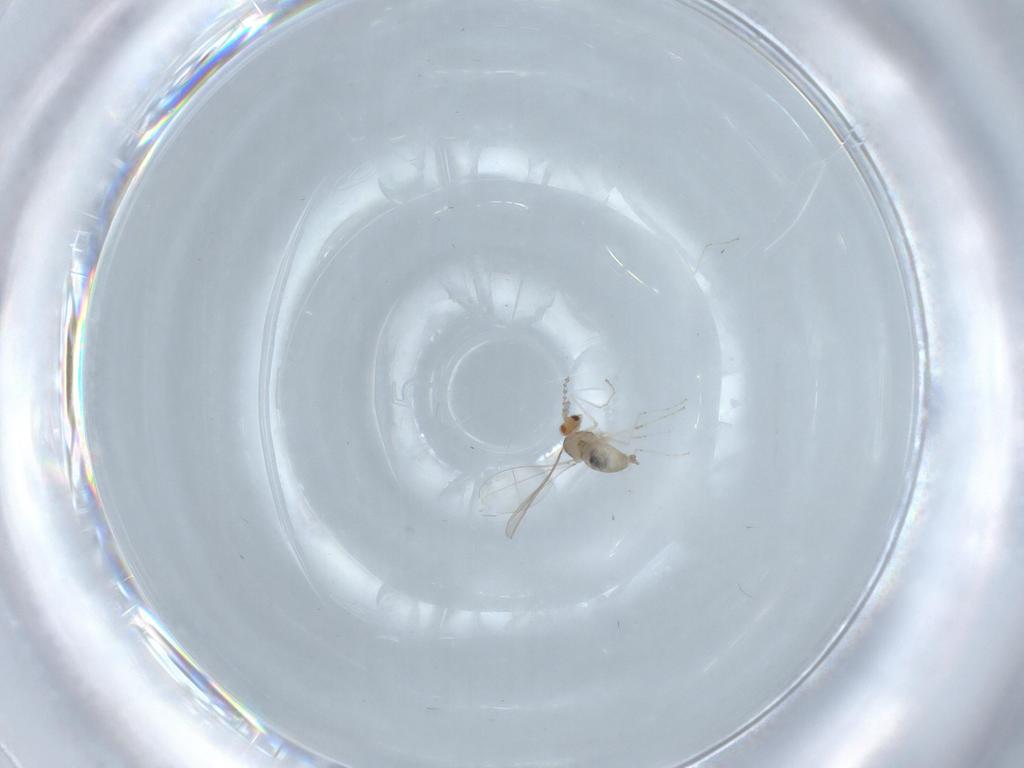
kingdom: Animalia
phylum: Arthropoda
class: Insecta
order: Diptera
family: Cecidomyiidae
